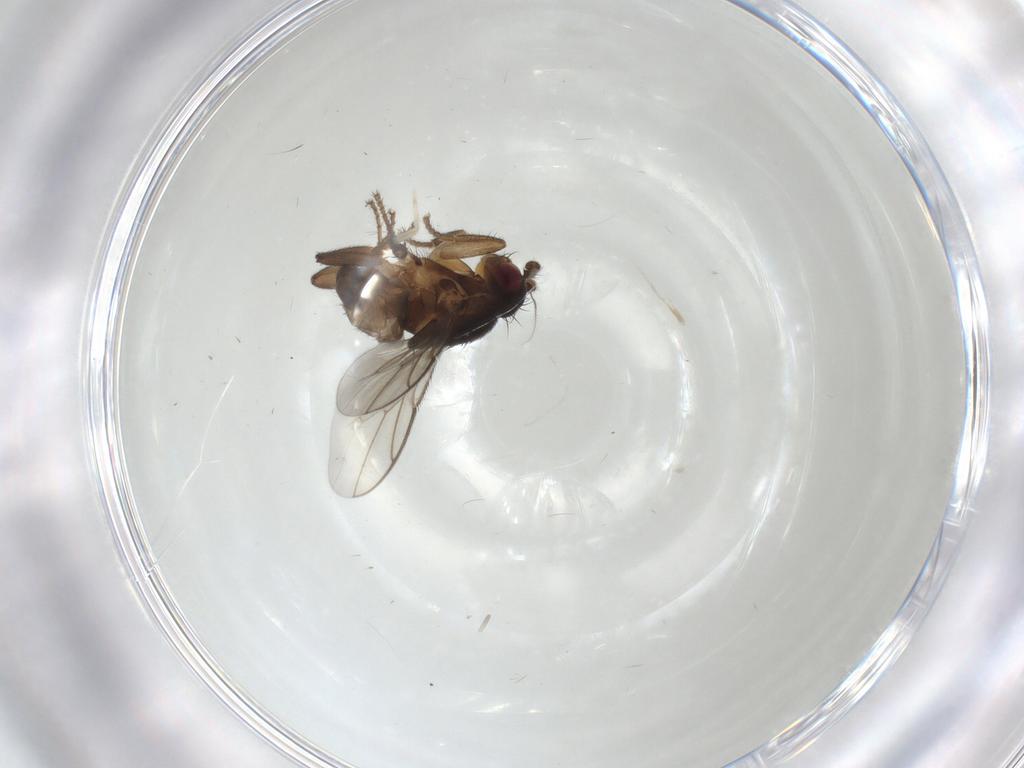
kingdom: Animalia
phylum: Arthropoda
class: Insecta
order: Diptera
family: Sphaeroceridae
